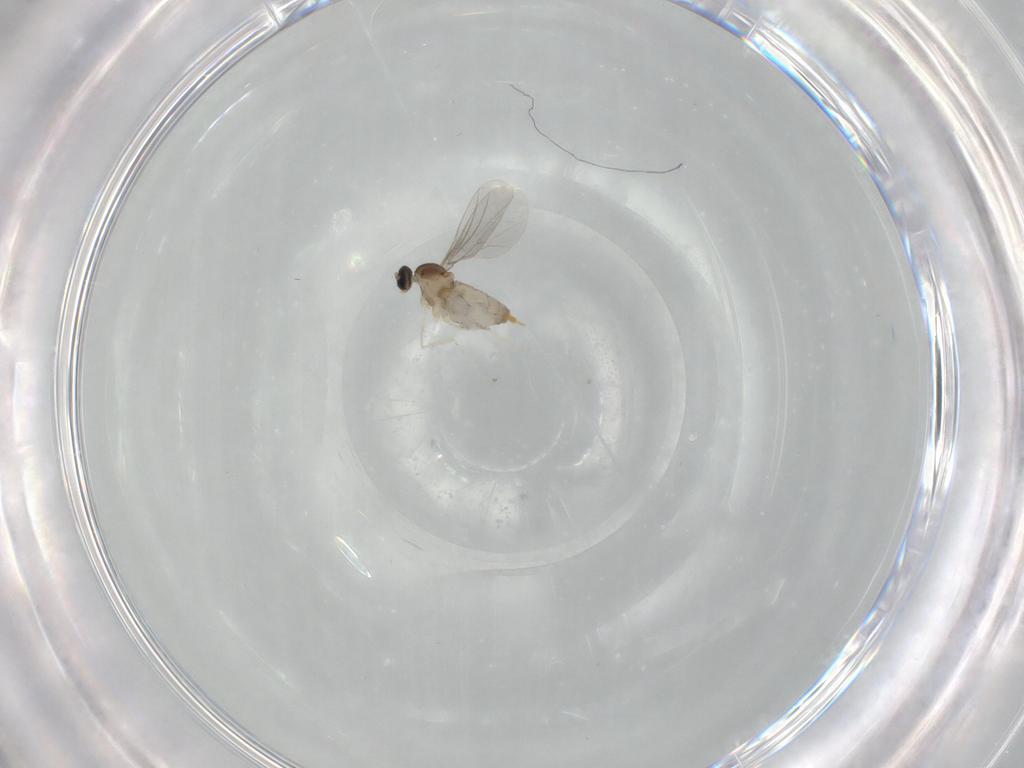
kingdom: Animalia
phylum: Arthropoda
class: Insecta
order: Diptera
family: Cecidomyiidae
